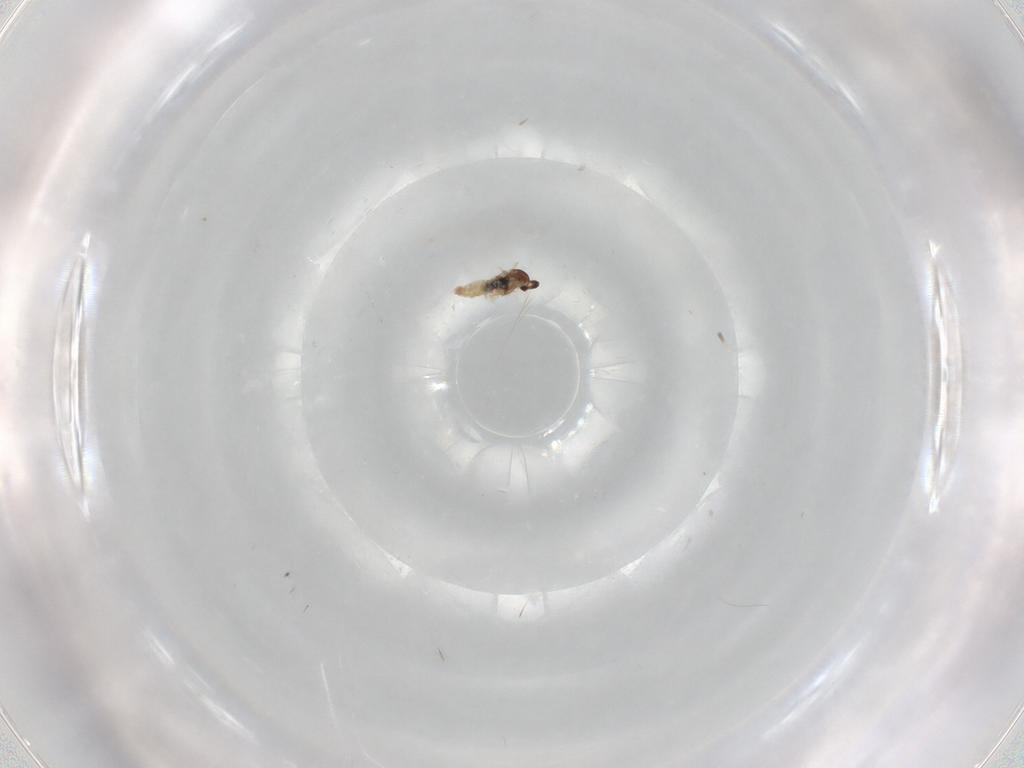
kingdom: Animalia
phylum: Arthropoda
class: Insecta
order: Diptera
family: Cecidomyiidae
